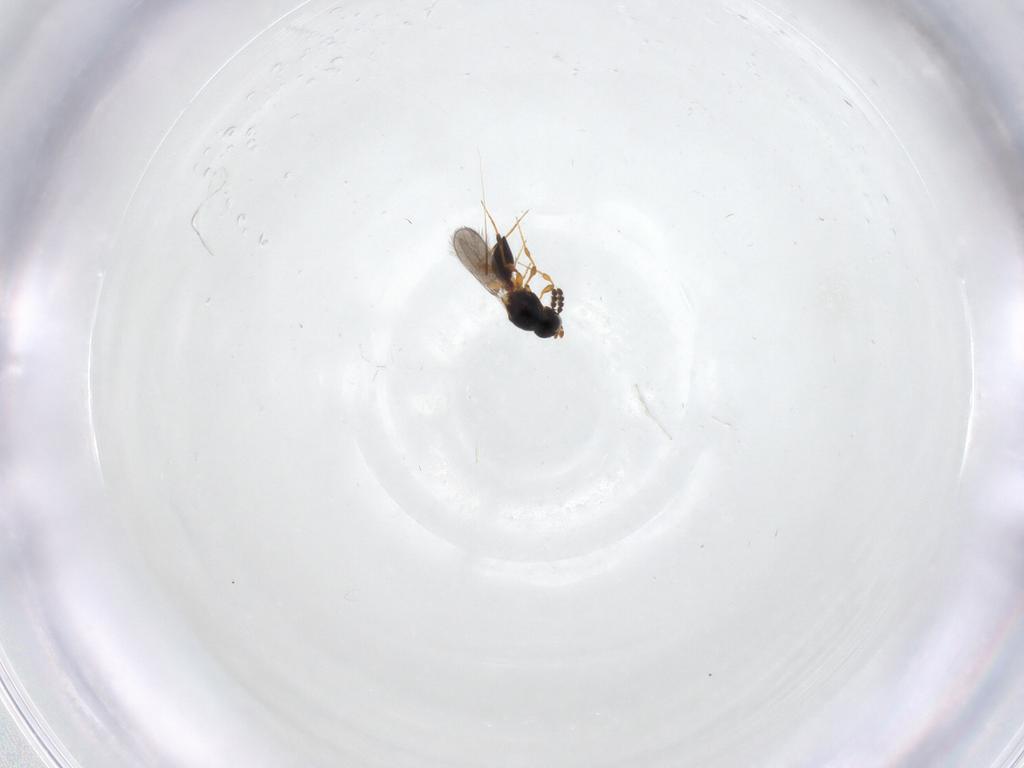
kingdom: Animalia
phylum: Arthropoda
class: Insecta
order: Hymenoptera
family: Platygastridae
